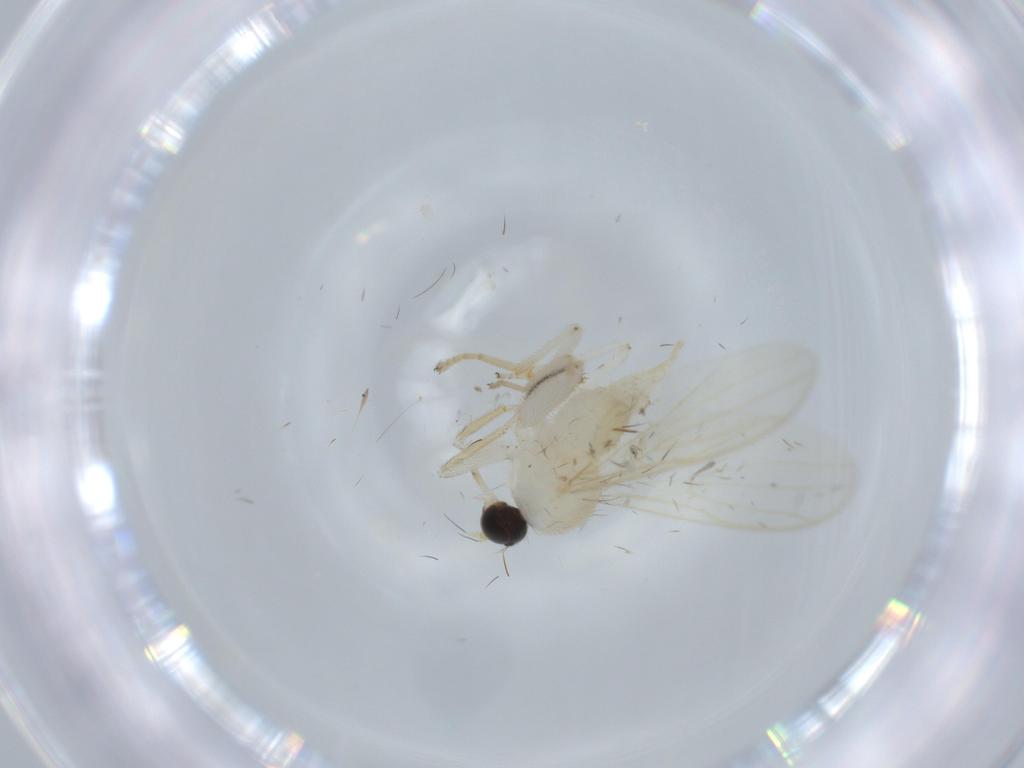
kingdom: Animalia
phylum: Arthropoda
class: Insecta
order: Diptera
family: Hybotidae
